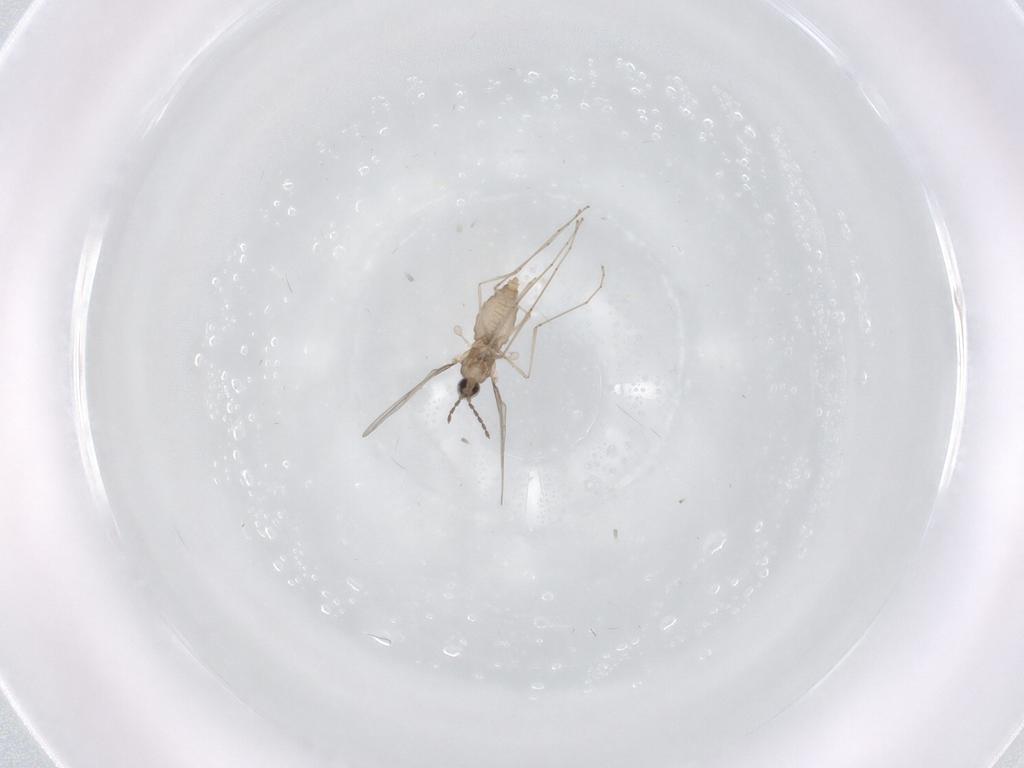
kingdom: Animalia
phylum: Arthropoda
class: Insecta
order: Diptera
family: Cecidomyiidae
